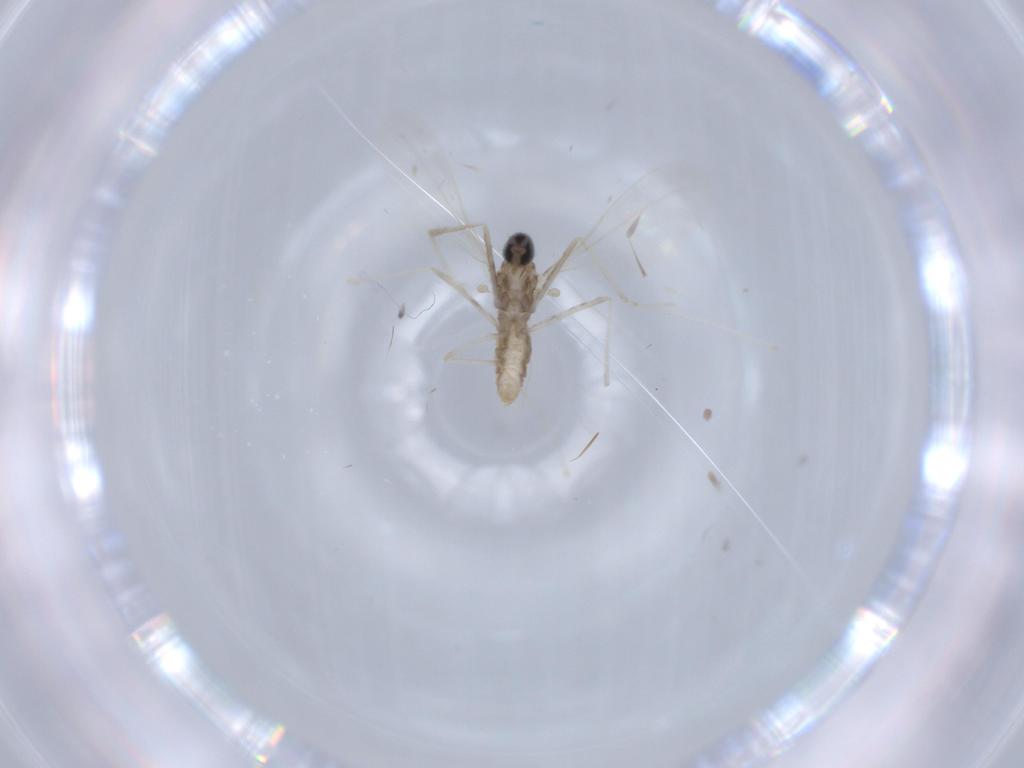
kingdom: Animalia
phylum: Arthropoda
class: Insecta
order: Diptera
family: Cecidomyiidae
